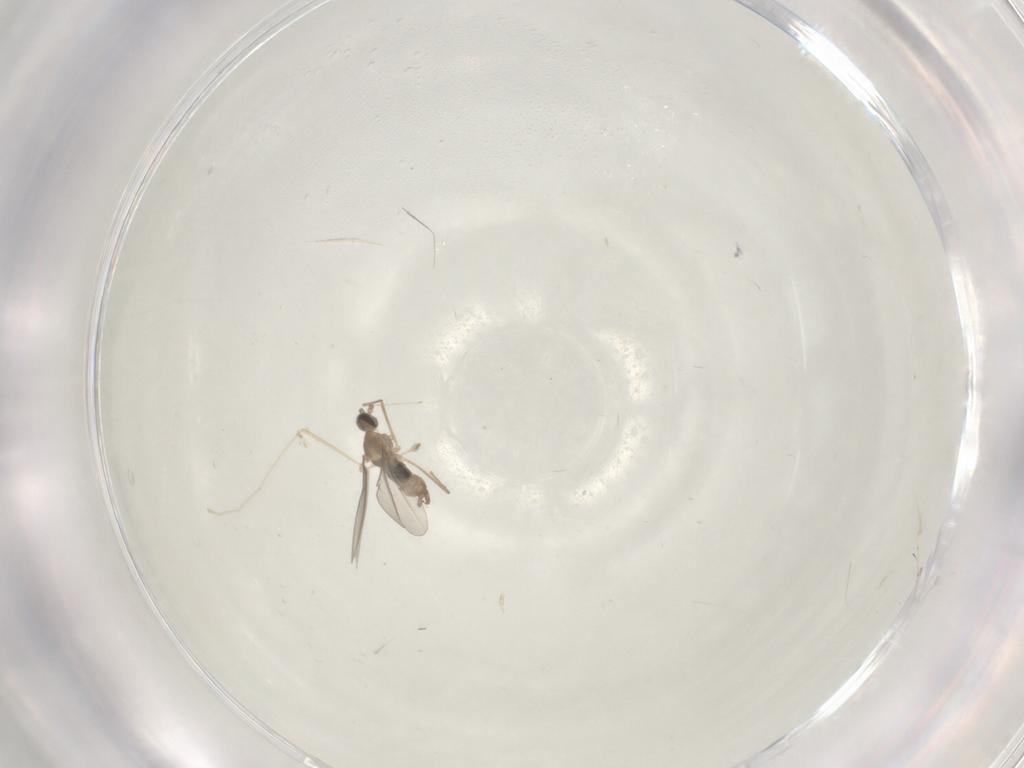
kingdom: Animalia
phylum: Arthropoda
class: Insecta
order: Diptera
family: Cecidomyiidae
